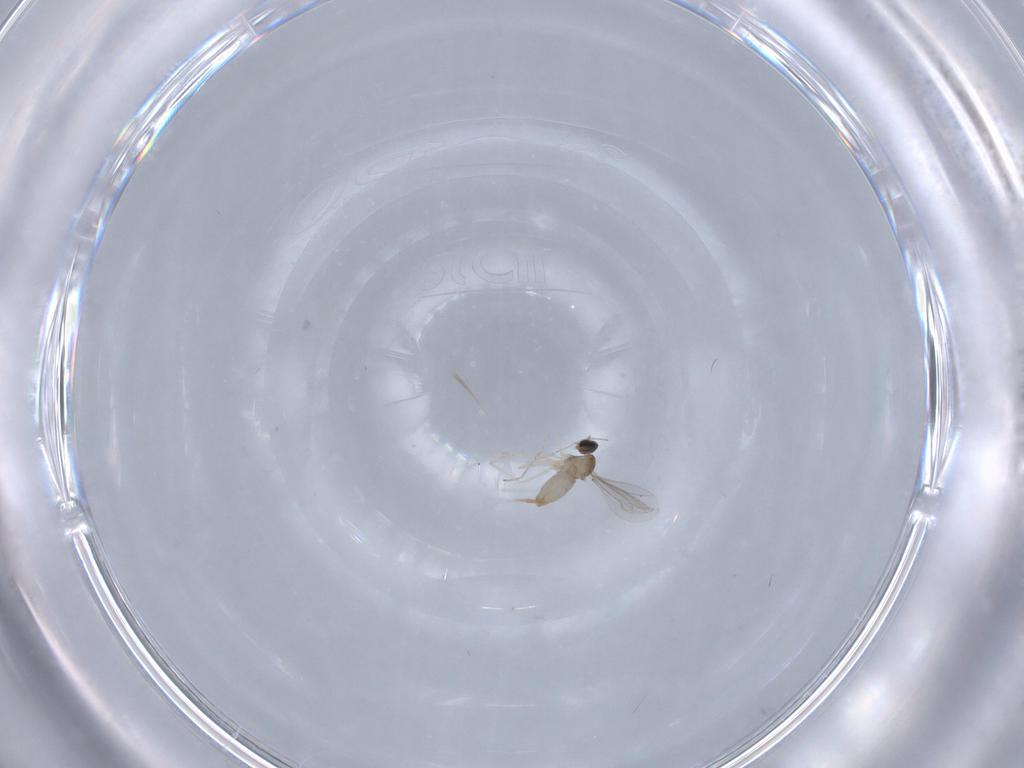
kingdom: Animalia
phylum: Arthropoda
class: Insecta
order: Diptera
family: Cecidomyiidae
